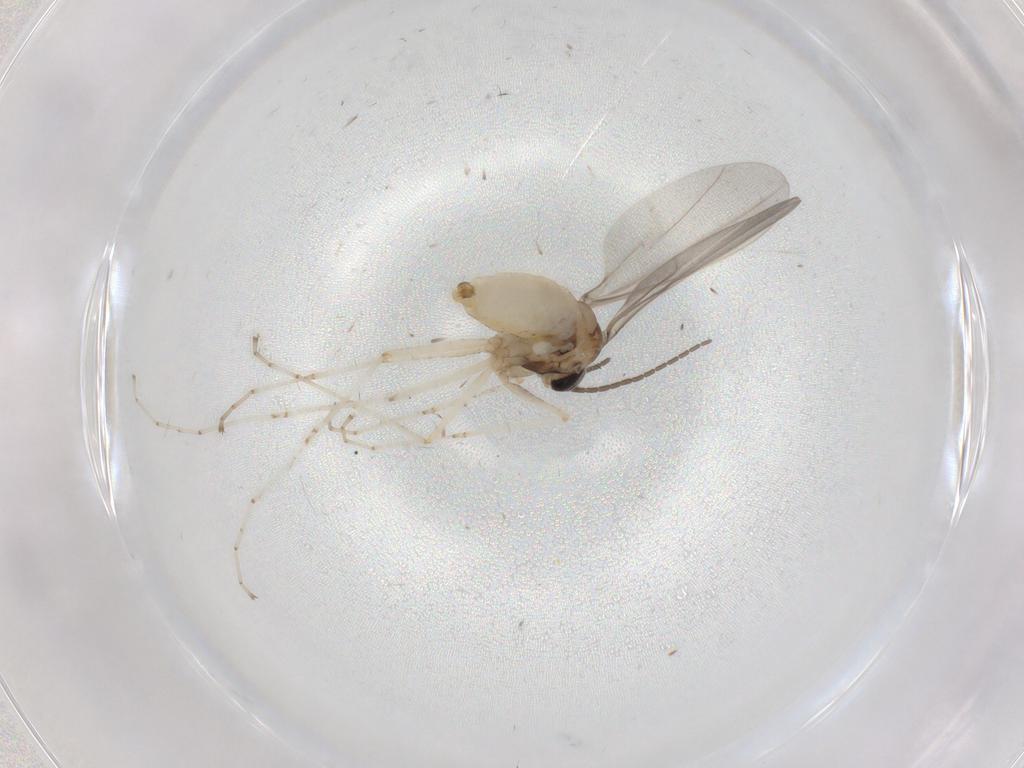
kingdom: Animalia
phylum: Arthropoda
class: Insecta
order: Diptera
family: Cecidomyiidae
